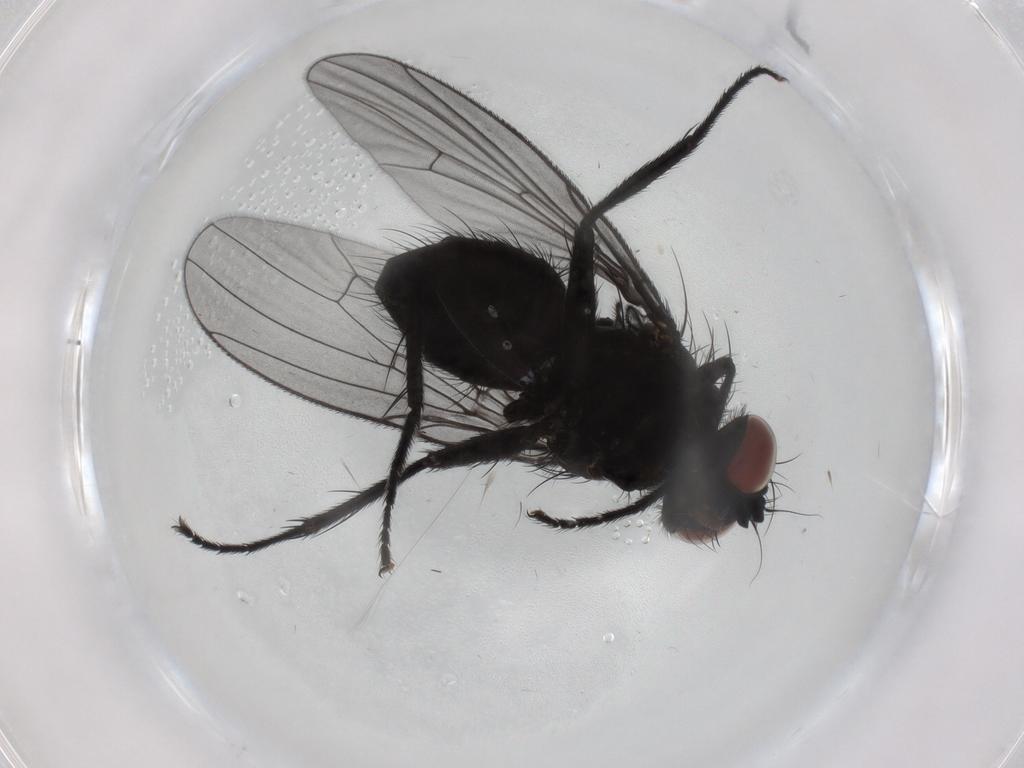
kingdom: Animalia
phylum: Arthropoda
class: Insecta
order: Diptera
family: Muscidae
